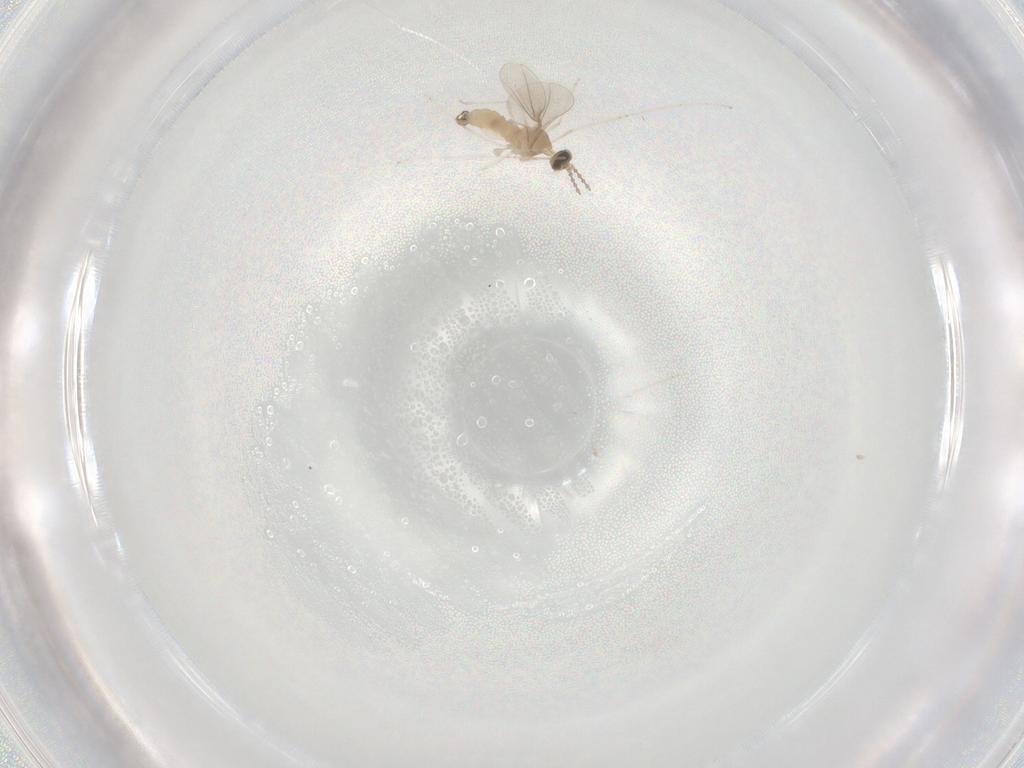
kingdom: Animalia
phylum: Arthropoda
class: Insecta
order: Diptera
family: Cecidomyiidae
